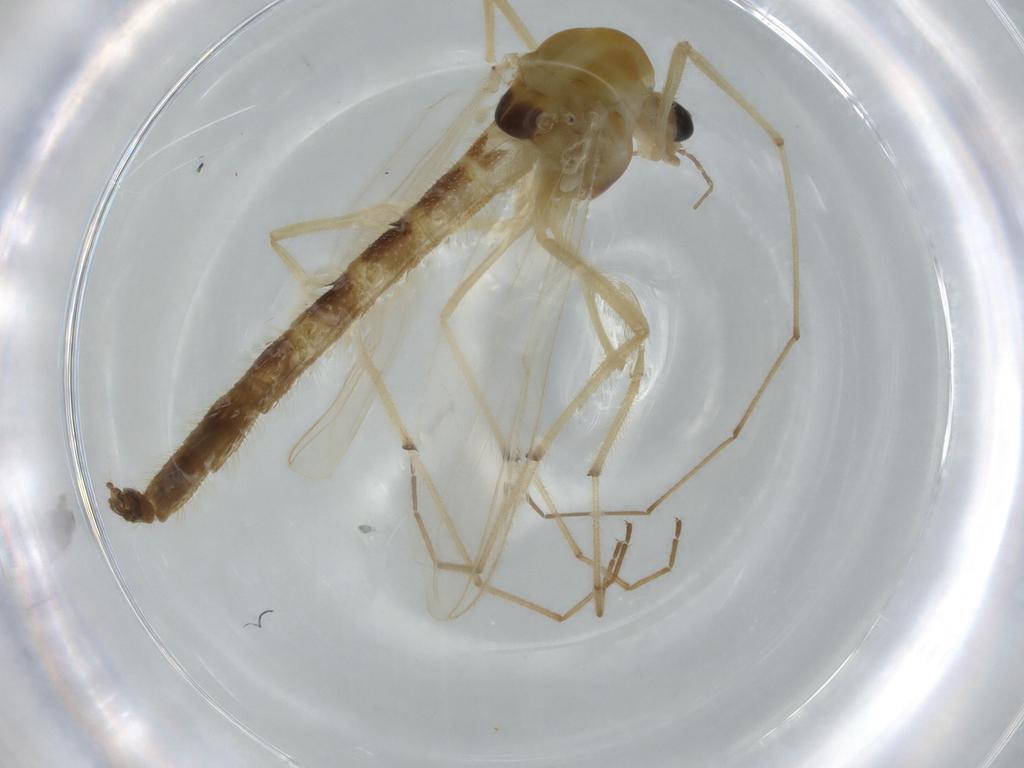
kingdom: Animalia
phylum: Arthropoda
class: Insecta
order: Diptera
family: Chironomidae
